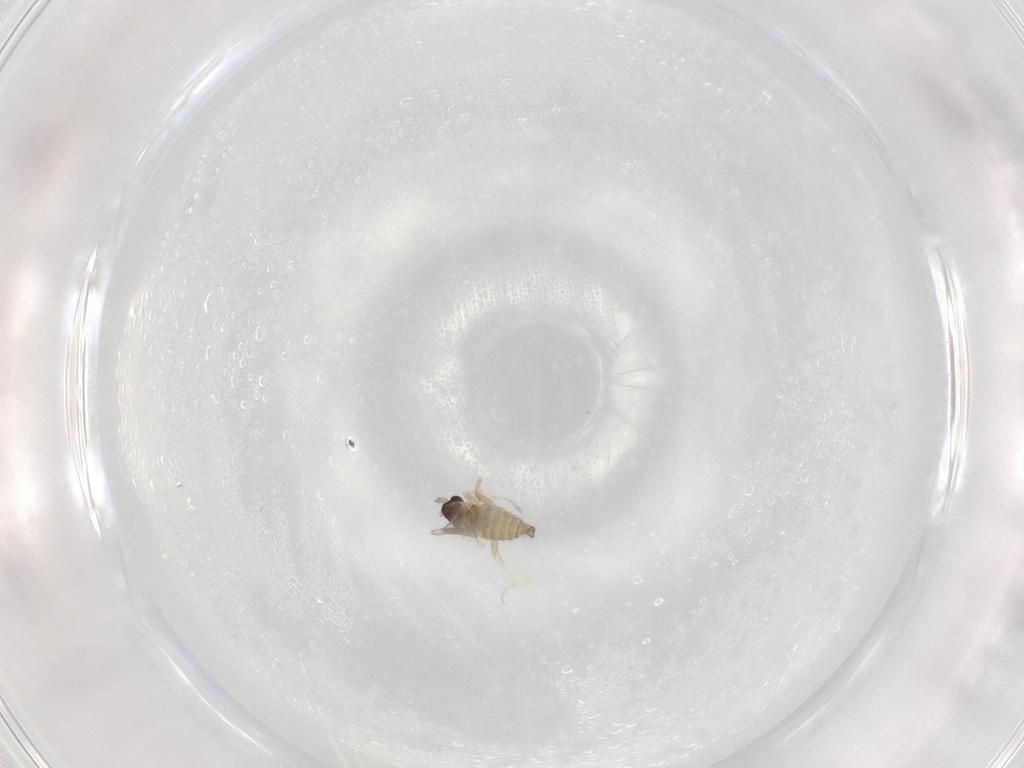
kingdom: Animalia
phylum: Arthropoda
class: Insecta
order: Diptera
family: Cecidomyiidae
